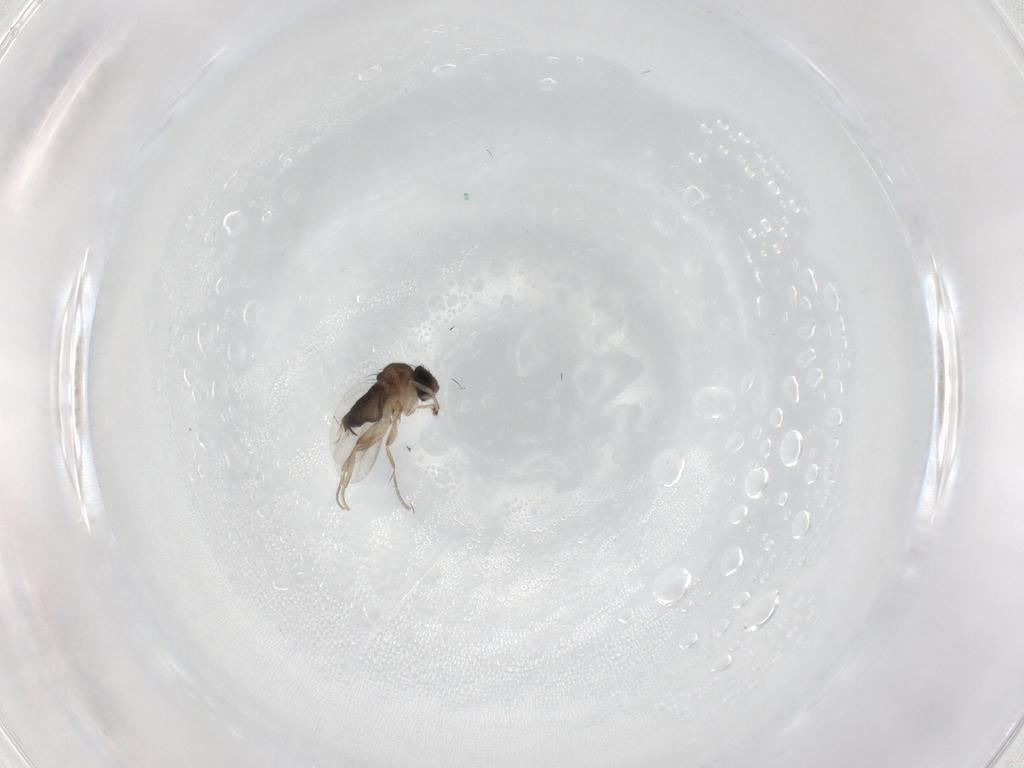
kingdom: Animalia
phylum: Arthropoda
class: Insecta
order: Diptera
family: Phoridae
